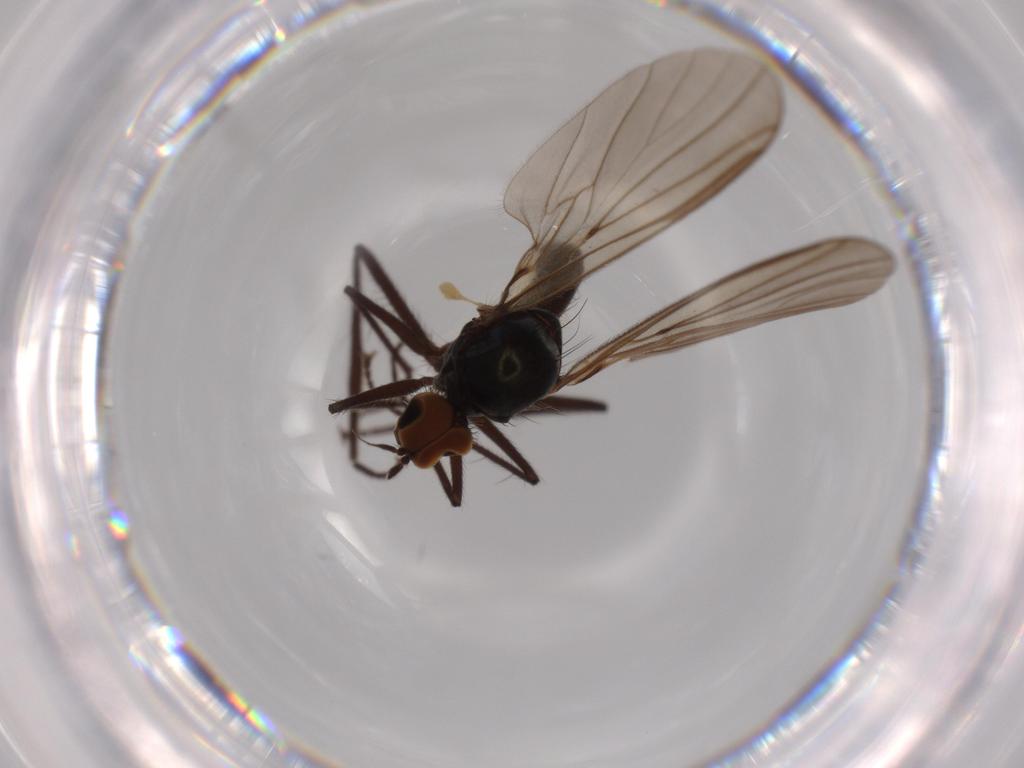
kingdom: Animalia
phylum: Arthropoda
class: Insecta
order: Diptera
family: Hybotidae
